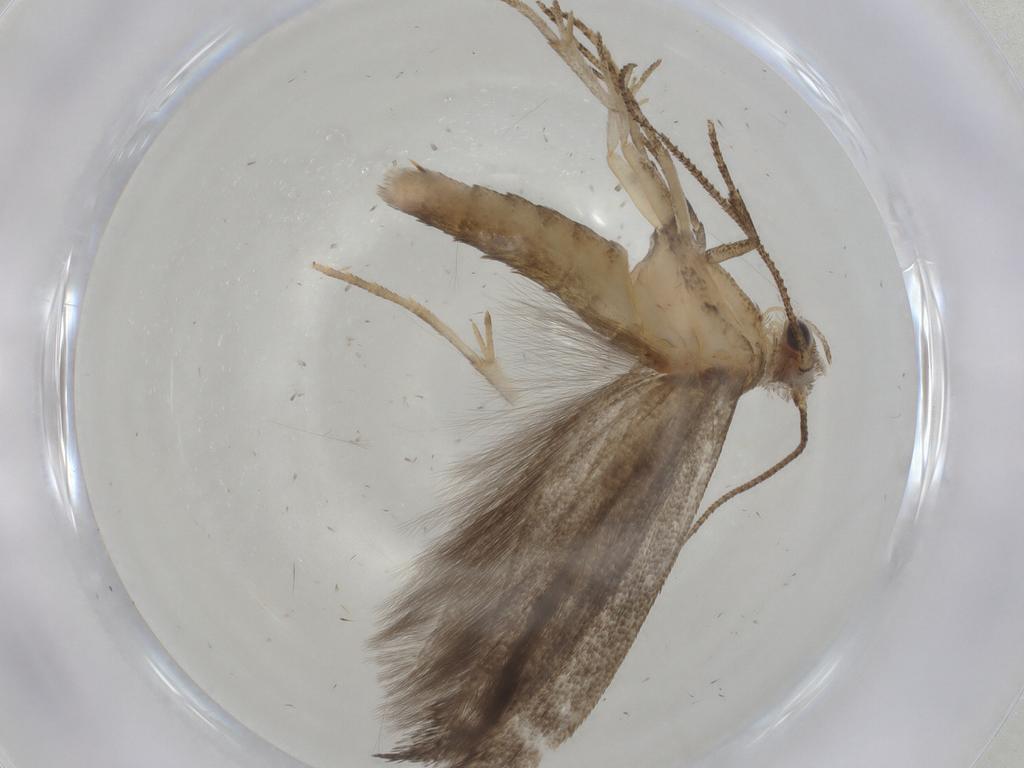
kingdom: Animalia
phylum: Arthropoda
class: Insecta
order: Lepidoptera
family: Plutellidae
